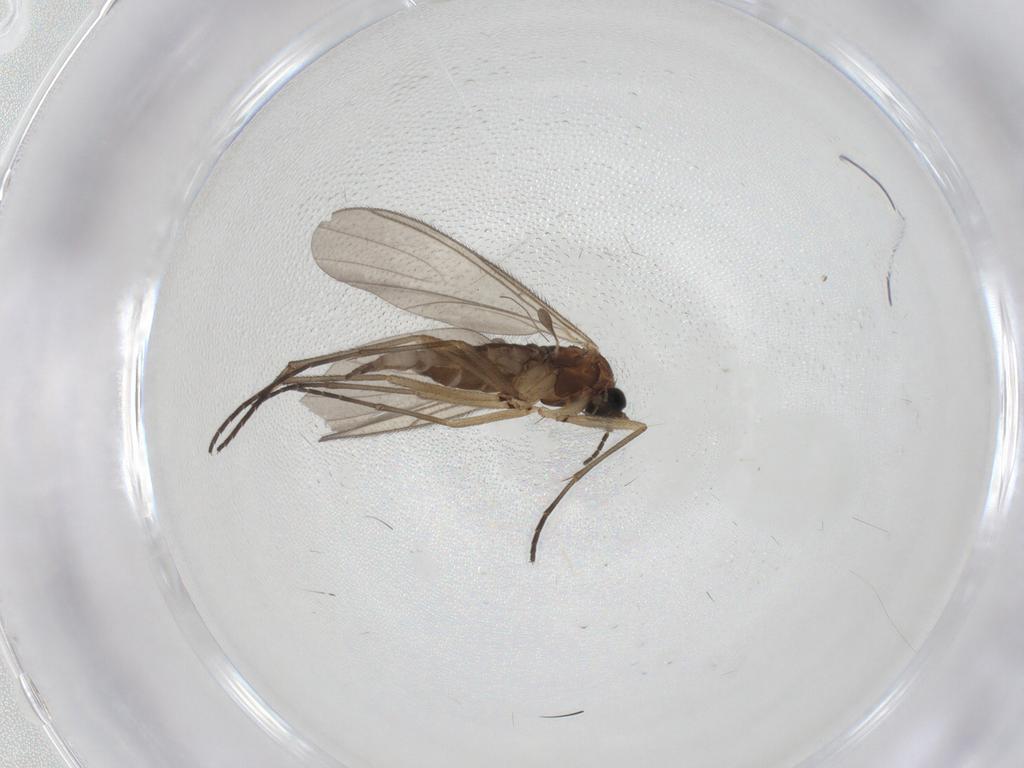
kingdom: Animalia
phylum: Arthropoda
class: Insecta
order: Diptera
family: Sciaridae
